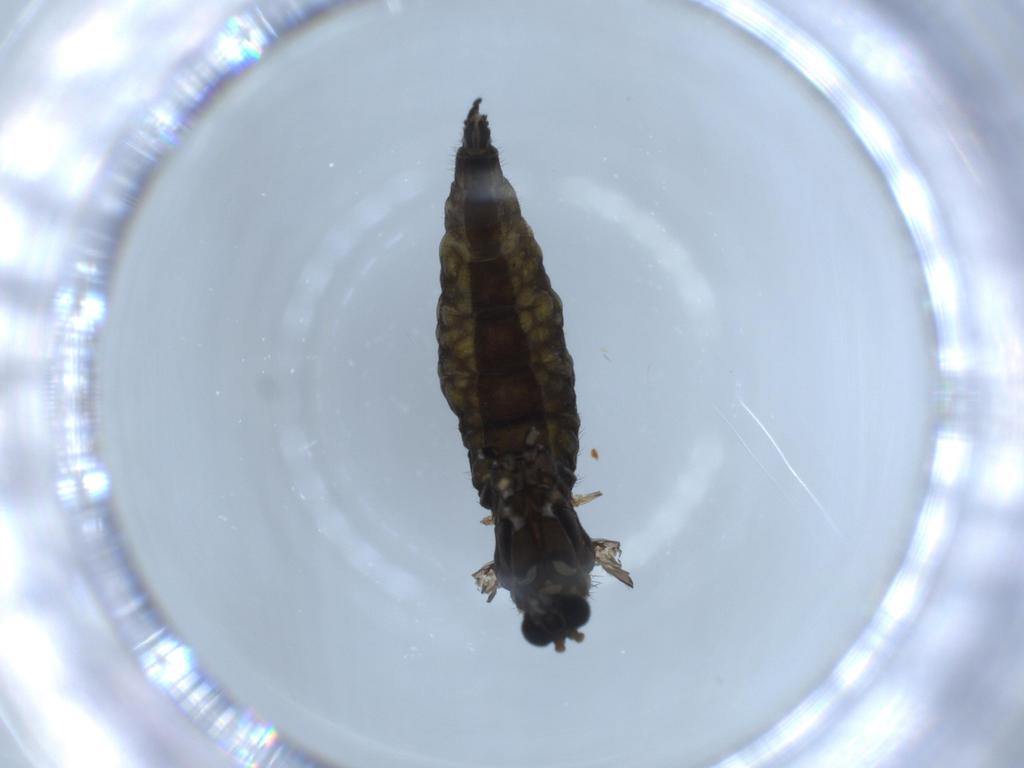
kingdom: Animalia
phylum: Arthropoda
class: Insecta
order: Diptera
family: Sciaridae
